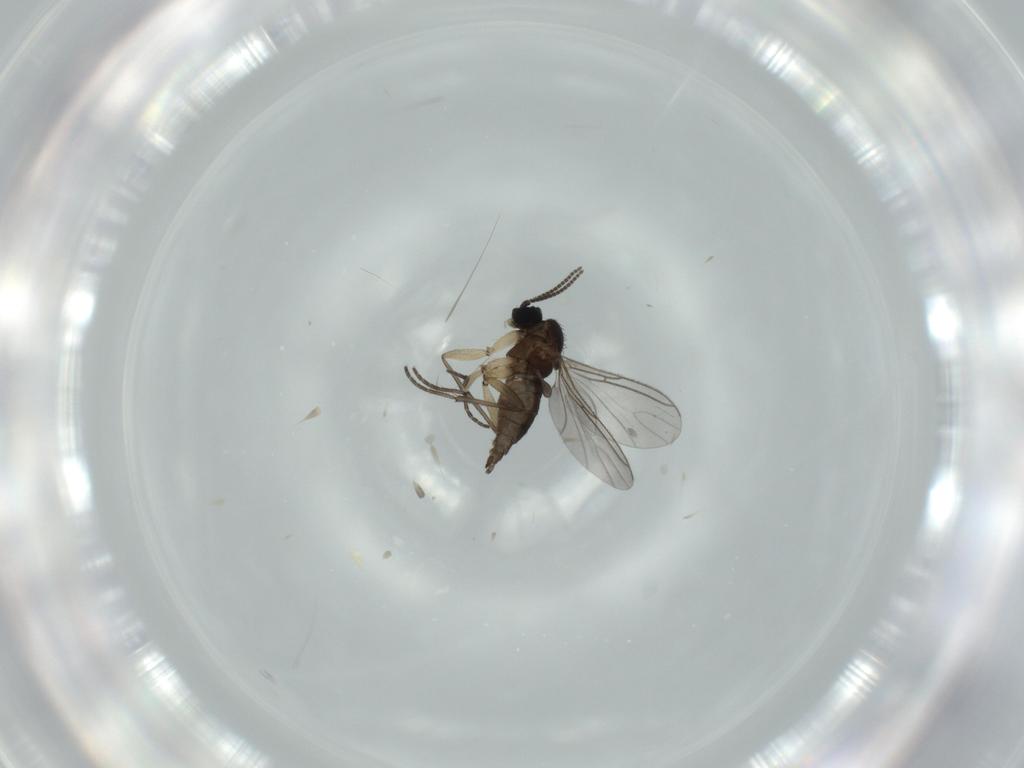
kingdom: Animalia
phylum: Arthropoda
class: Insecta
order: Diptera
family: Sciaridae
